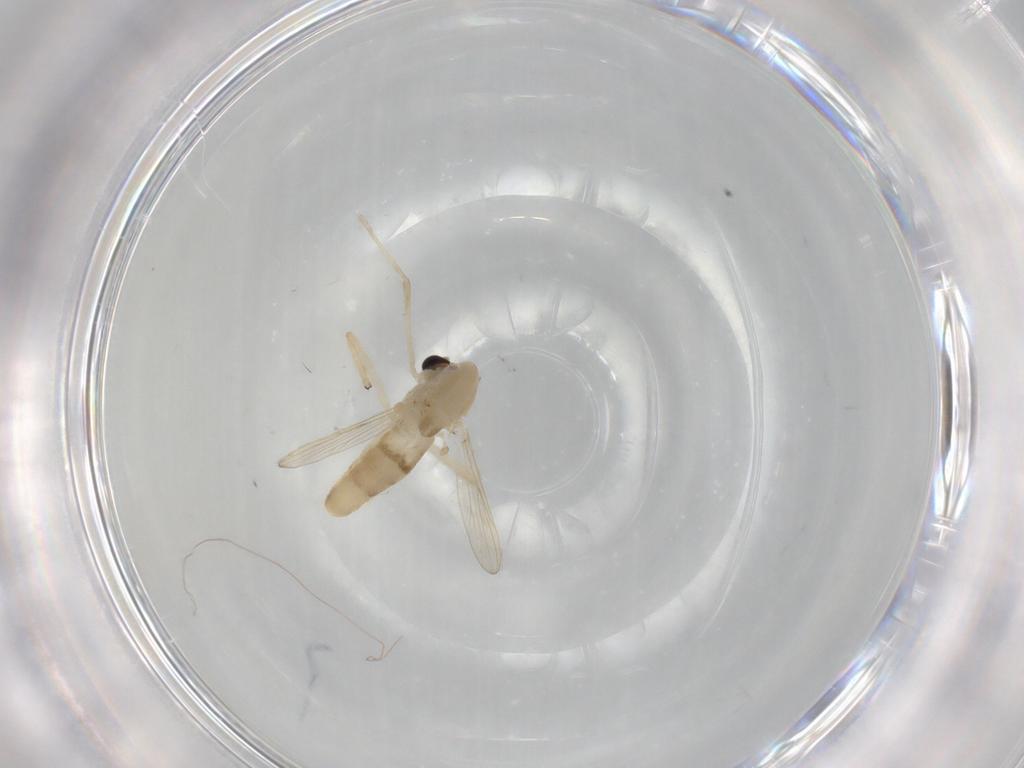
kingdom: Animalia
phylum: Arthropoda
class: Insecta
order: Diptera
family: Chironomidae
